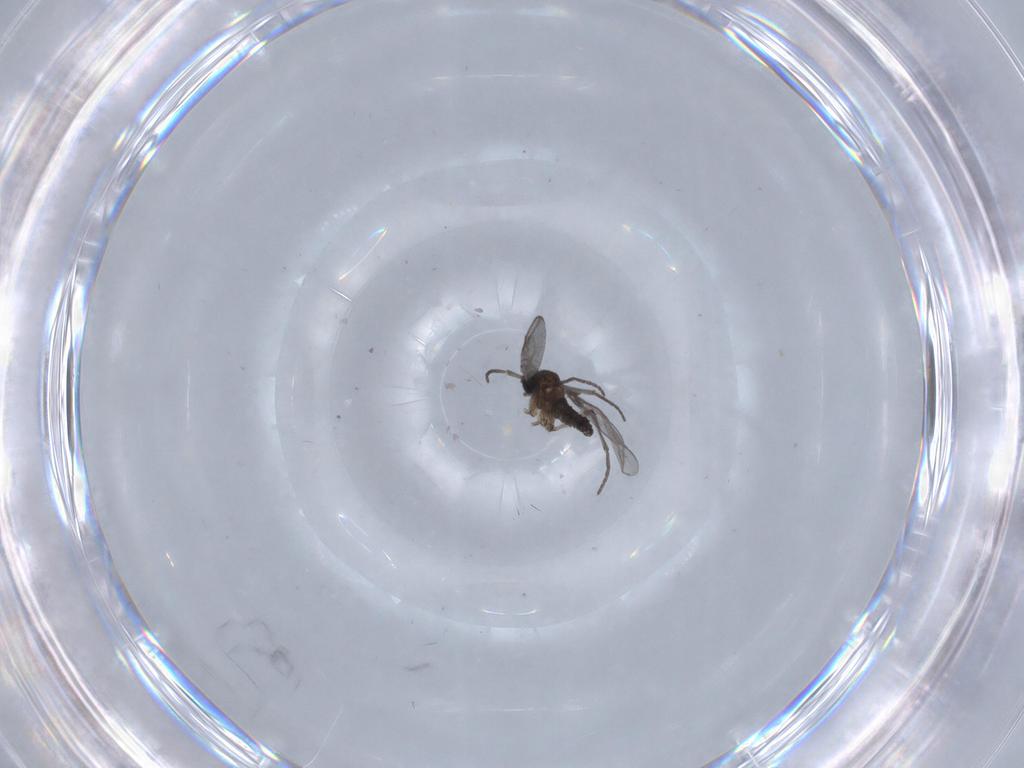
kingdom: Animalia
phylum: Arthropoda
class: Insecta
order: Diptera
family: Culicidae
